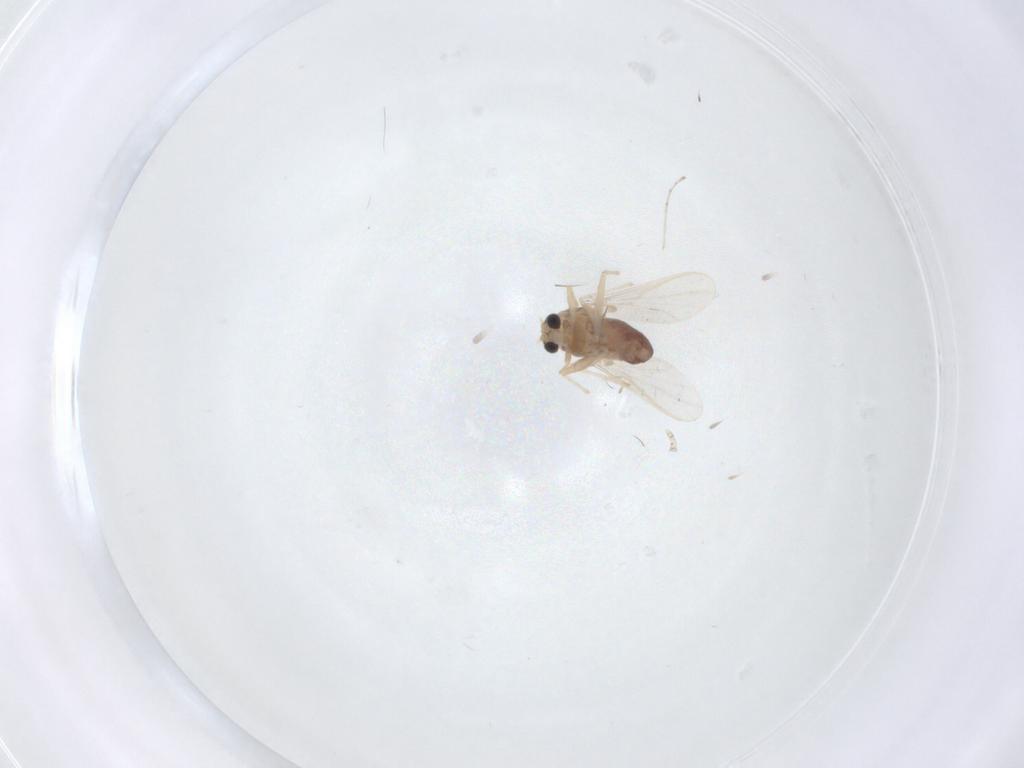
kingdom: Animalia
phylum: Arthropoda
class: Insecta
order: Diptera
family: Chironomidae
